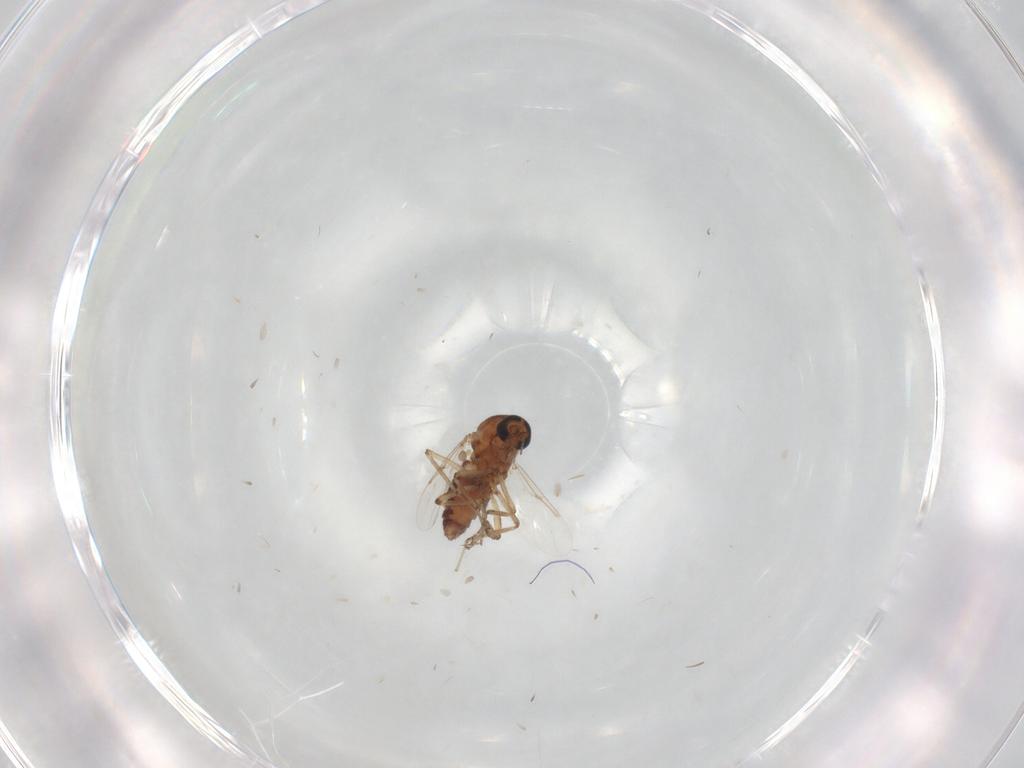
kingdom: Animalia
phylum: Arthropoda
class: Insecta
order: Diptera
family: Ceratopogonidae
